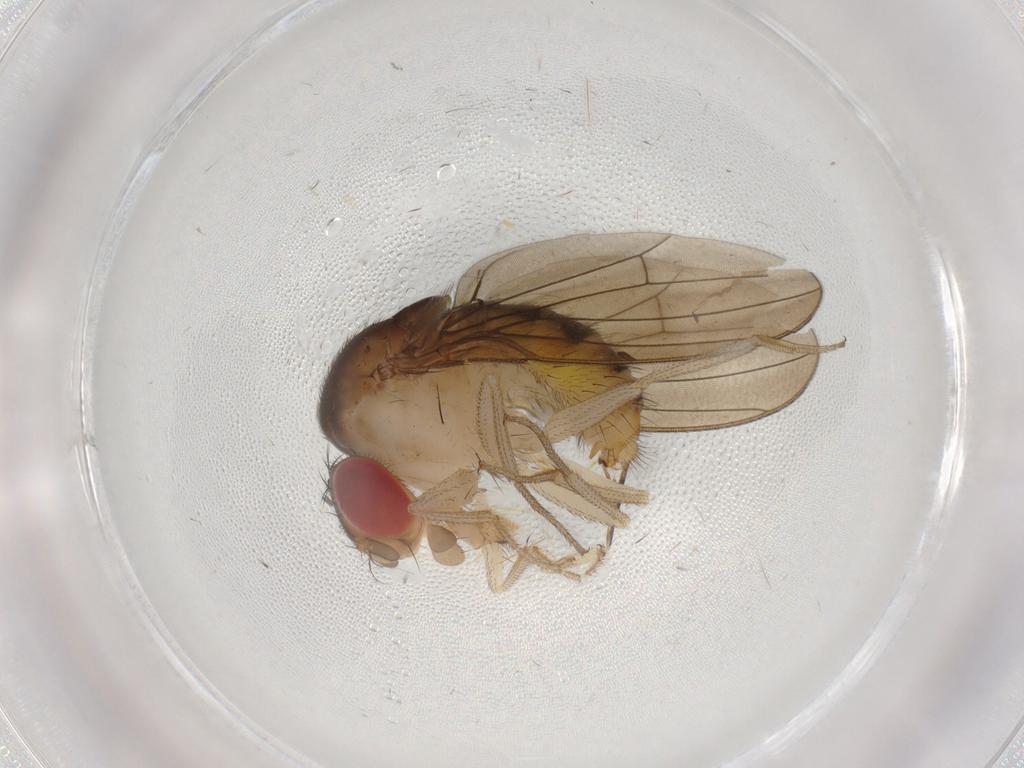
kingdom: Animalia
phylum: Arthropoda
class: Insecta
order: Diptera
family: Drosophilidae
